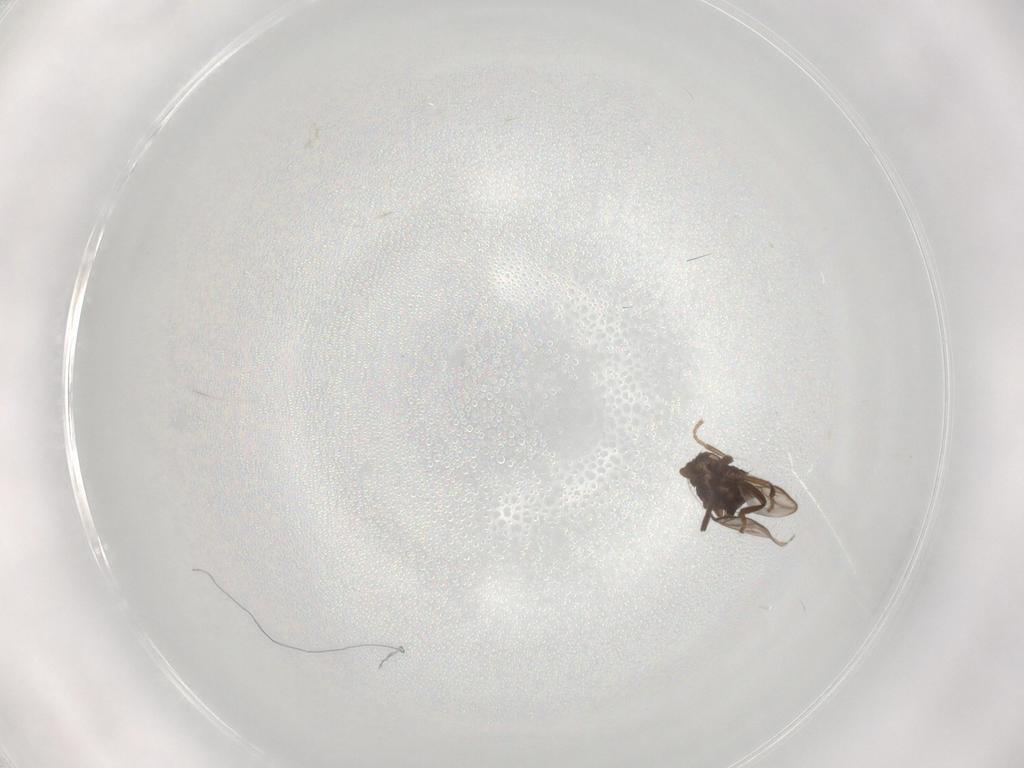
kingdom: Animalia
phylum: Arthropoda
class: Insecta
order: Diptera
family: Sphaeroceridae
